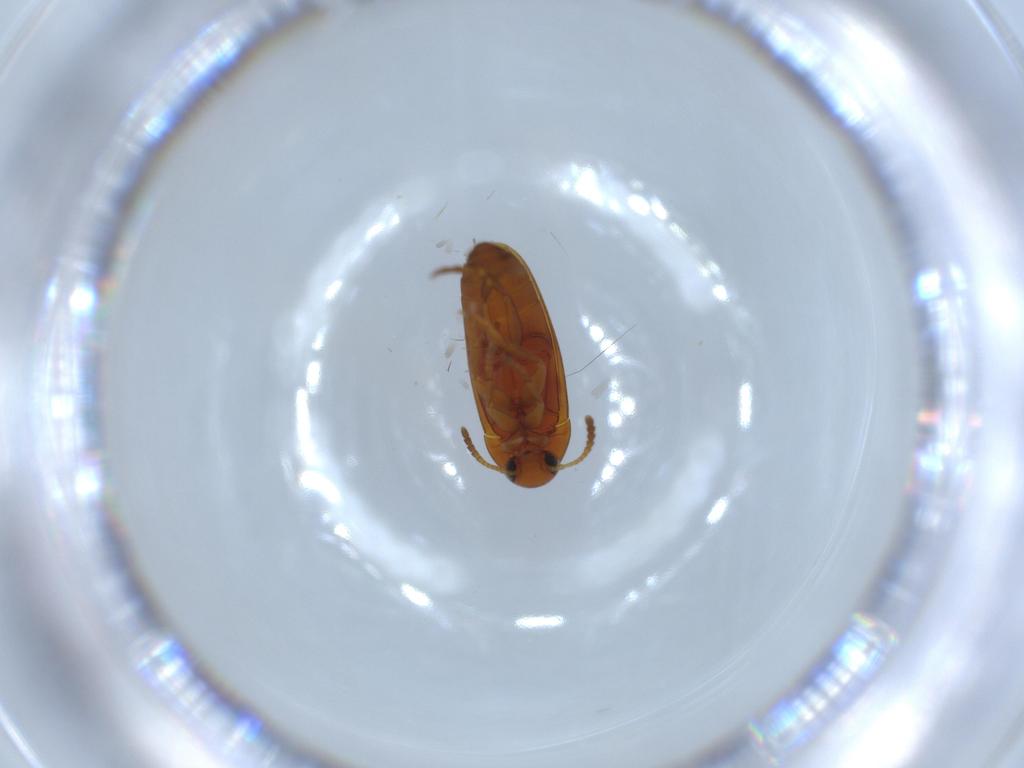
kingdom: Animalia
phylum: Arthropoda
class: Insecta
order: Coleoptera
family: Scraptiidae
